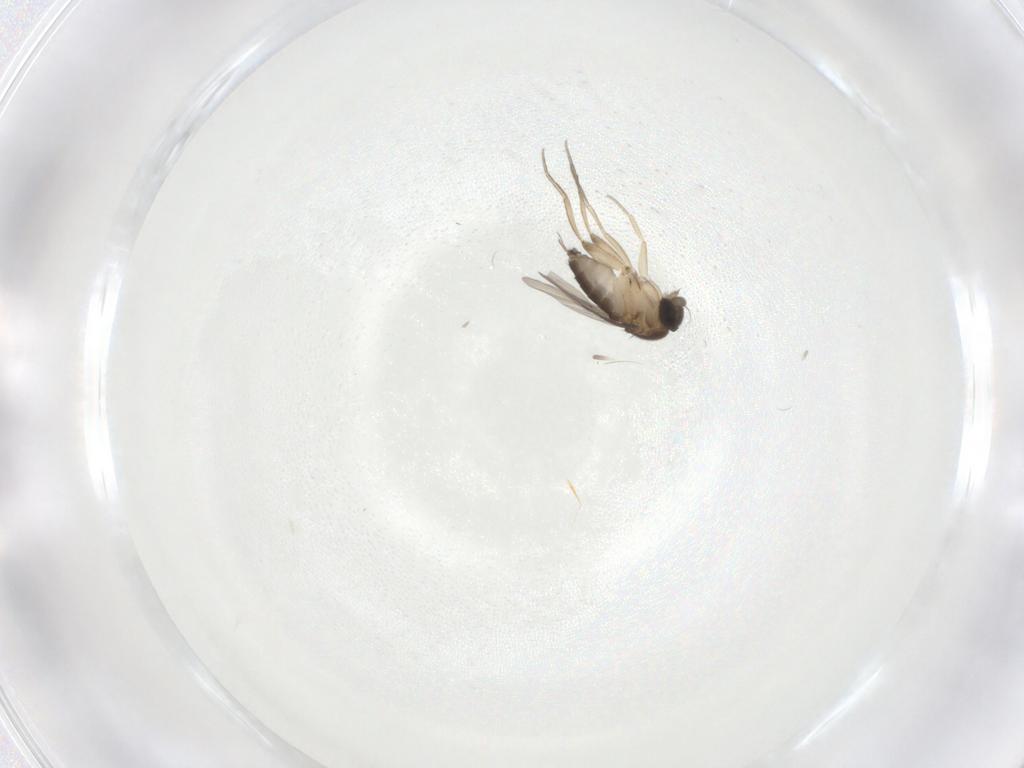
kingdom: Animalia
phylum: Arthropoda
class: Insecta
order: Diptera
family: Phoridae
